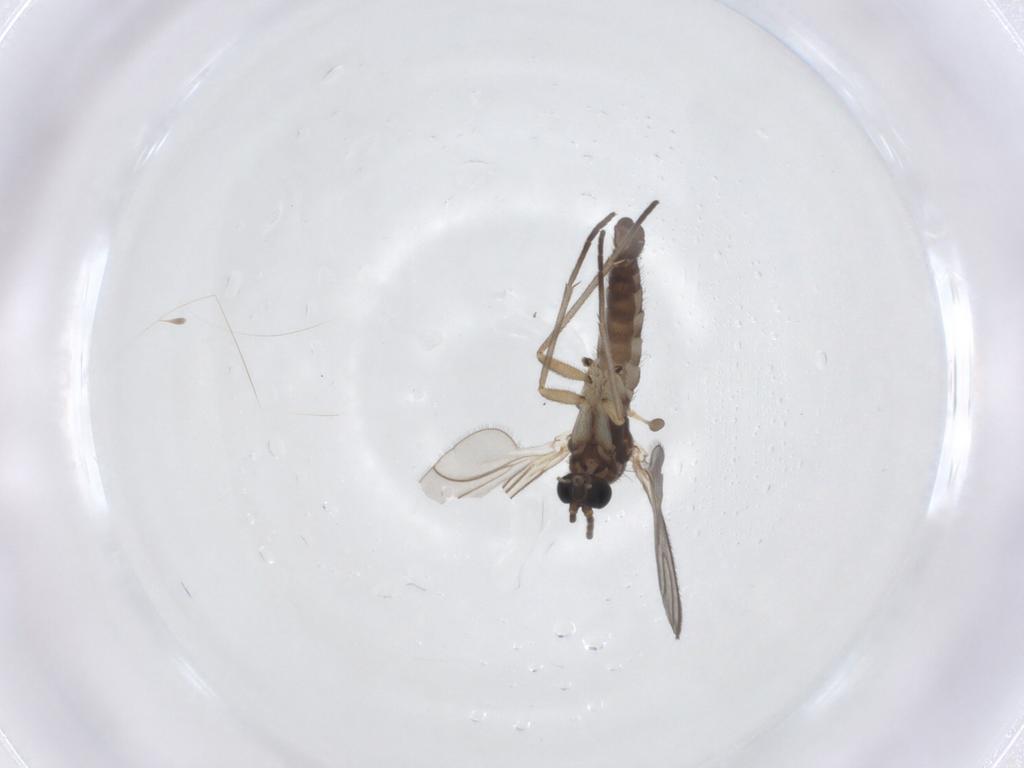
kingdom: Animalia
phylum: Arthropoda
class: Insecta
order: Diptera
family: Sciaridae
